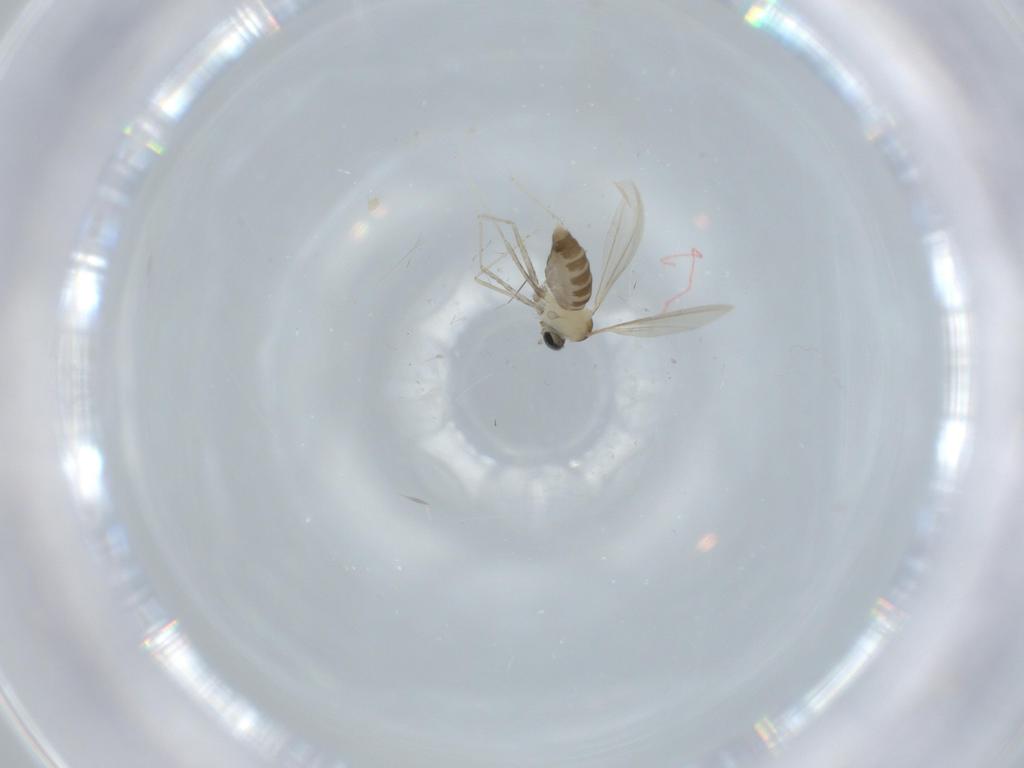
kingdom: Animalia
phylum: Arthropoda
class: Insecta
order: Diptera
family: Cecidomyiidae
